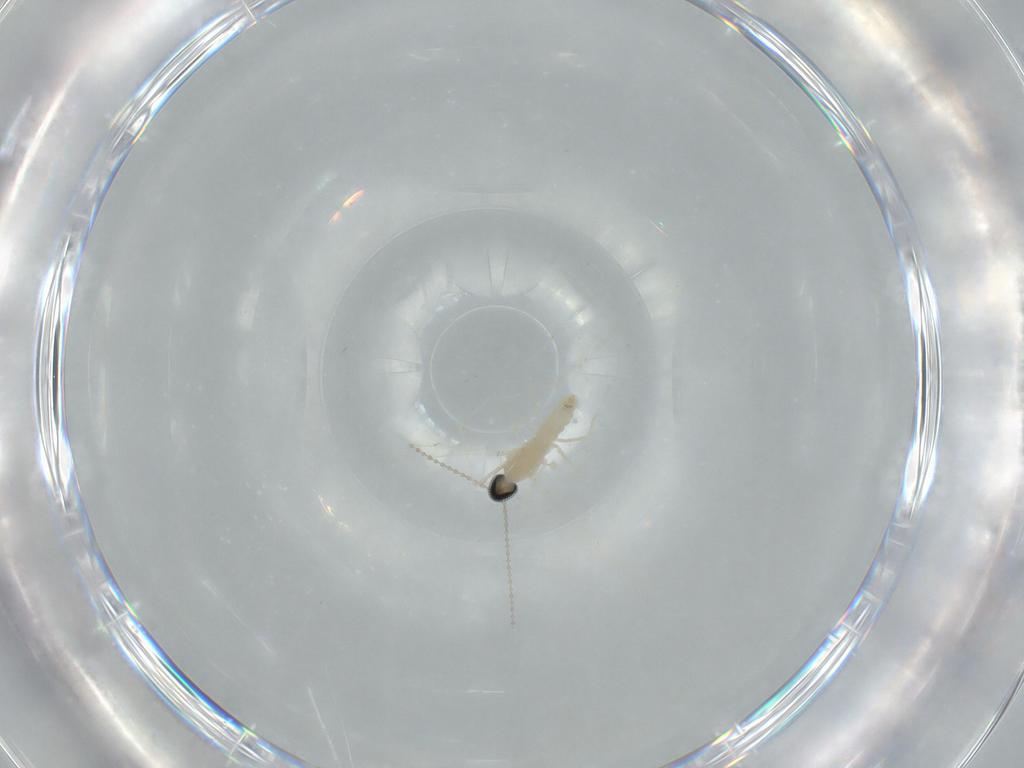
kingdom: Animalia
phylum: Arthropoda
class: Insecta
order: Diptera
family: Cecidomyiidae
